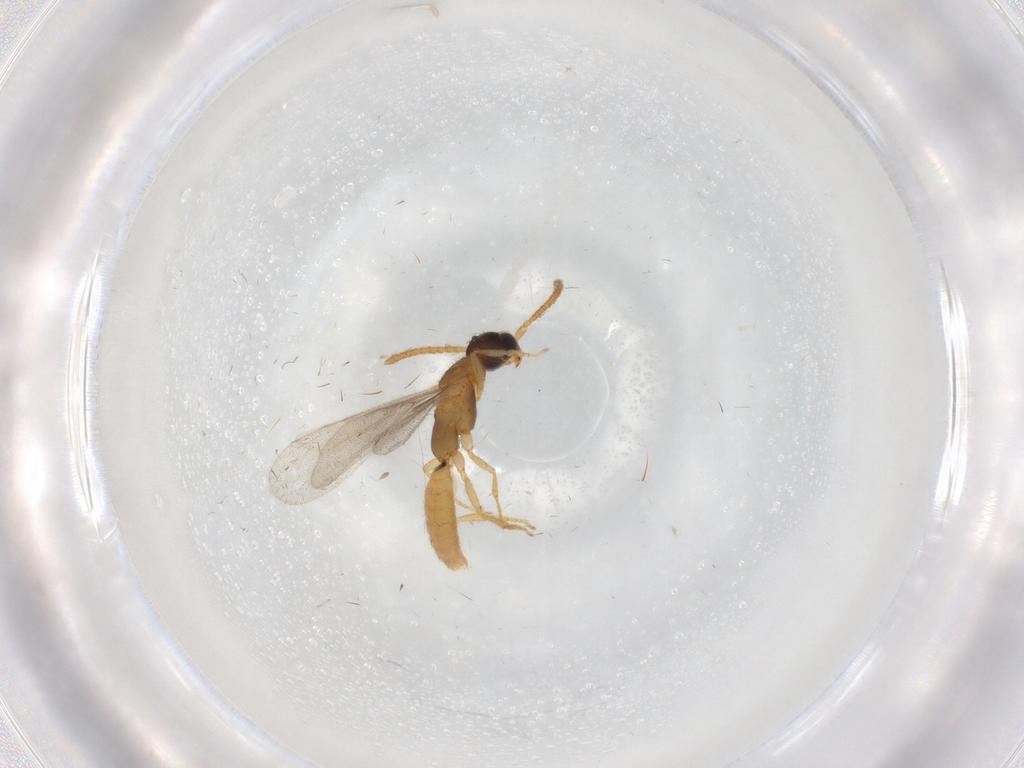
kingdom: Animalia
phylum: Arthropoda
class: Insecta
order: Hymenoptera
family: Bethylidae
